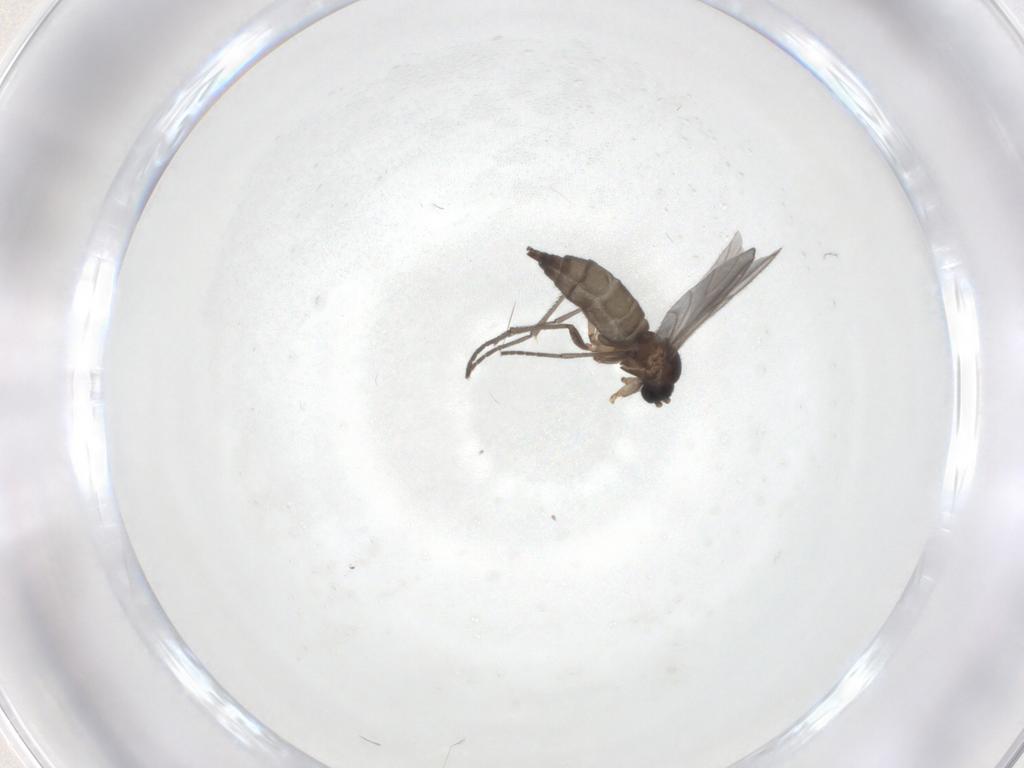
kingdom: Animalia
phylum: Arthropoda
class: Insecta
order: Diptera
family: Sciaridae
